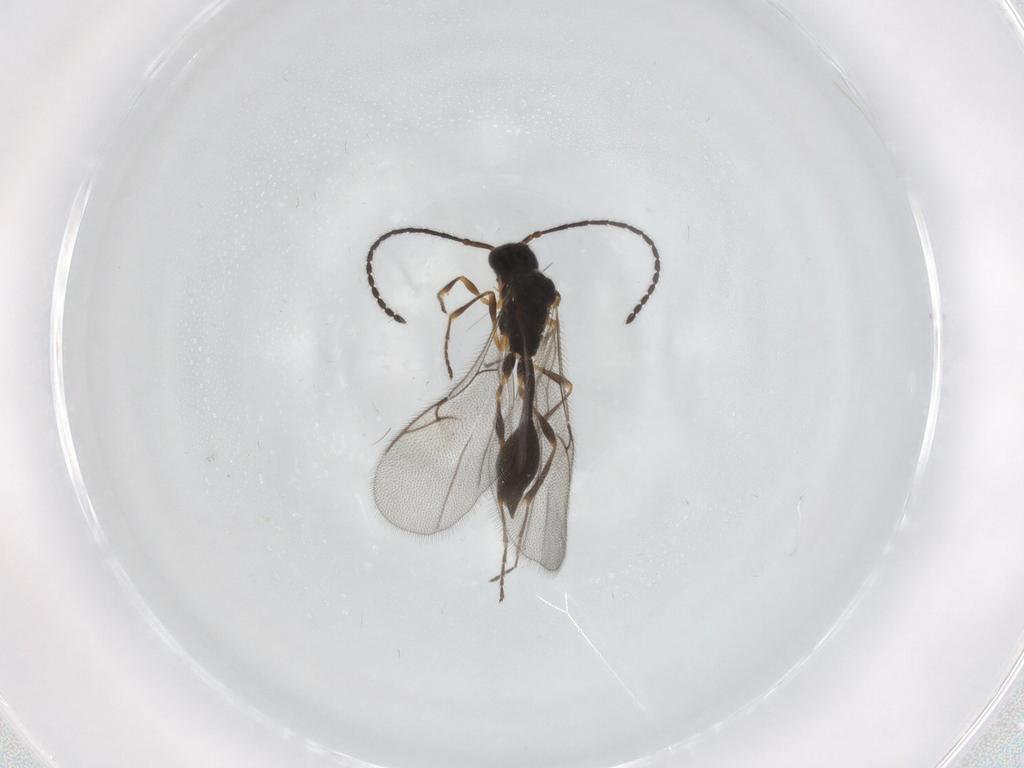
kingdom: Animalia
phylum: Arthropoda
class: Insecta
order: Hymenoptera
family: Diapriidae
